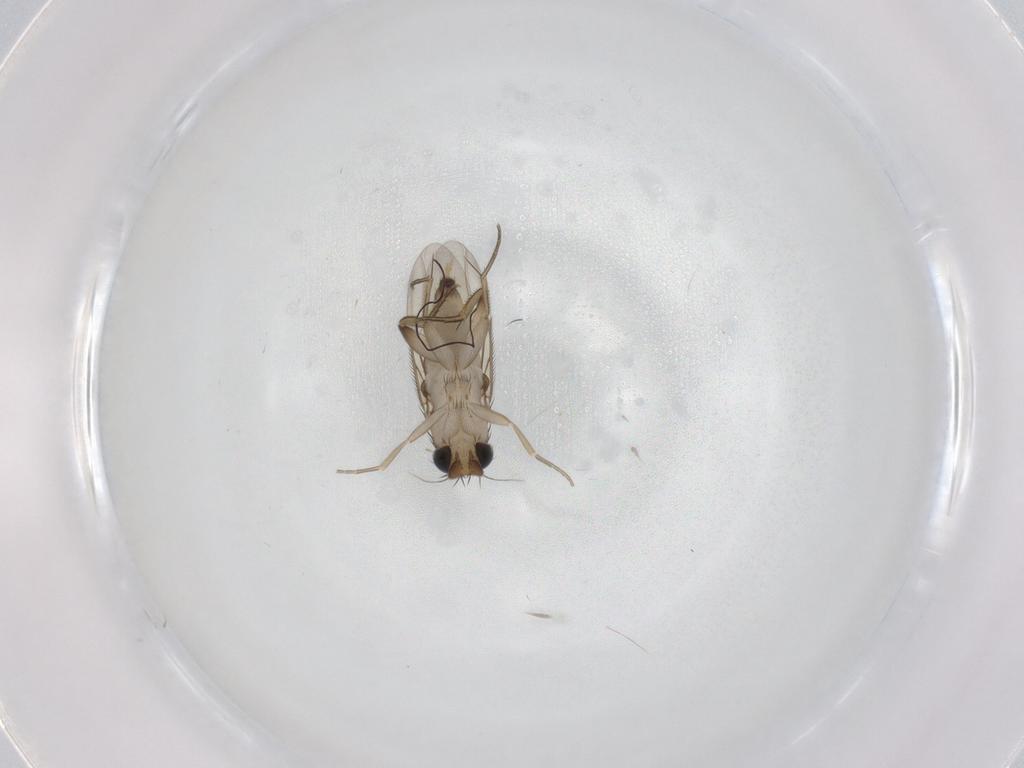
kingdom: Animalia
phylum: Arthropoda
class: Insecta
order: Diptera
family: Phoridae
